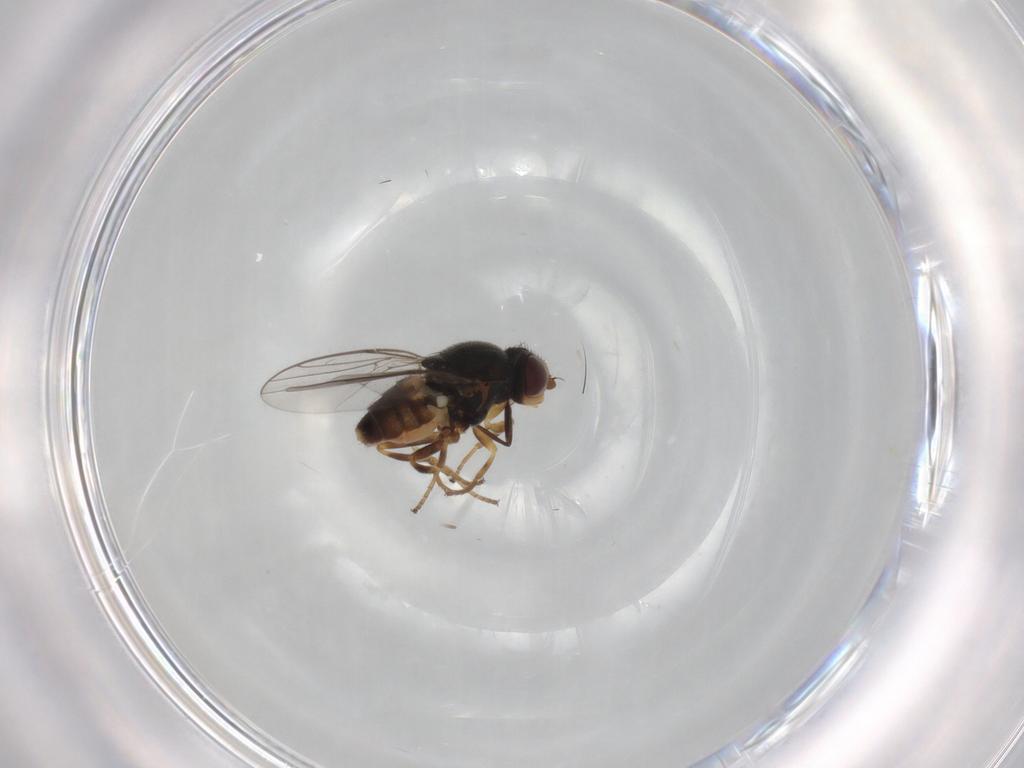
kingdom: Animalia
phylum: Arthropoda
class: Insecta
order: Diptera
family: Chloropidae
